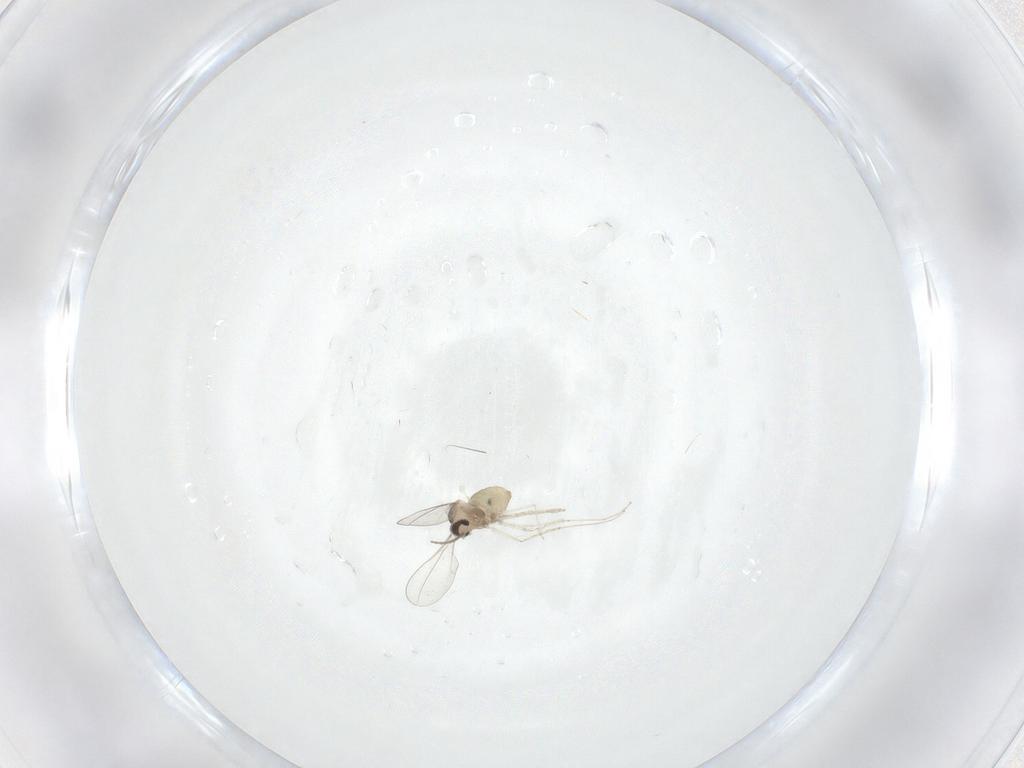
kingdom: Animalia
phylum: Arthropoda
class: Insecta
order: Diptera
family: Cecidomyiidae
